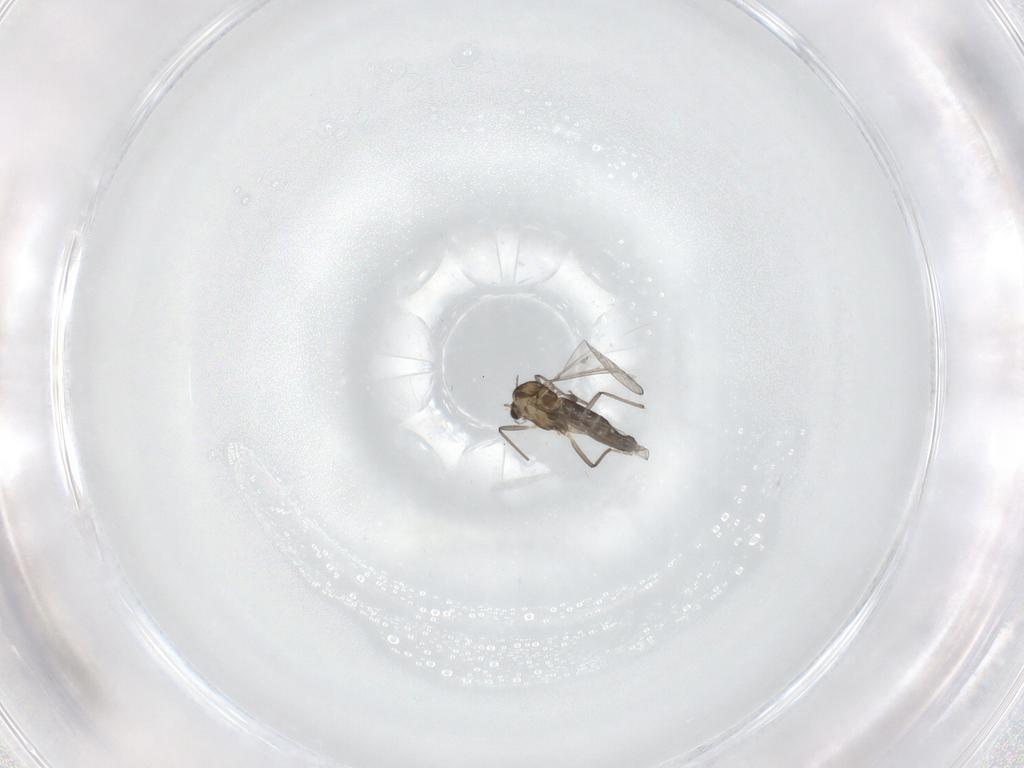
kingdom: Animalia
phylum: Arthropoda
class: Insecta
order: Diptera
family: Chironomidae
